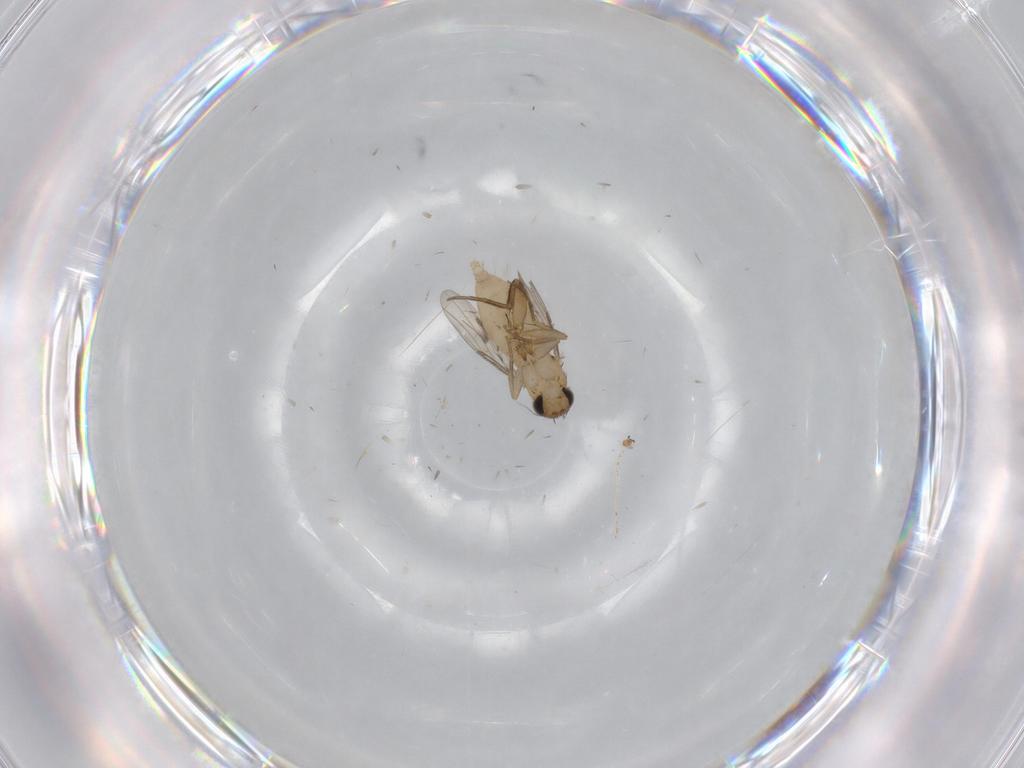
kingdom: Animalia
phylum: Arthropoda
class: Insecta
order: Diptera
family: Phoridae
